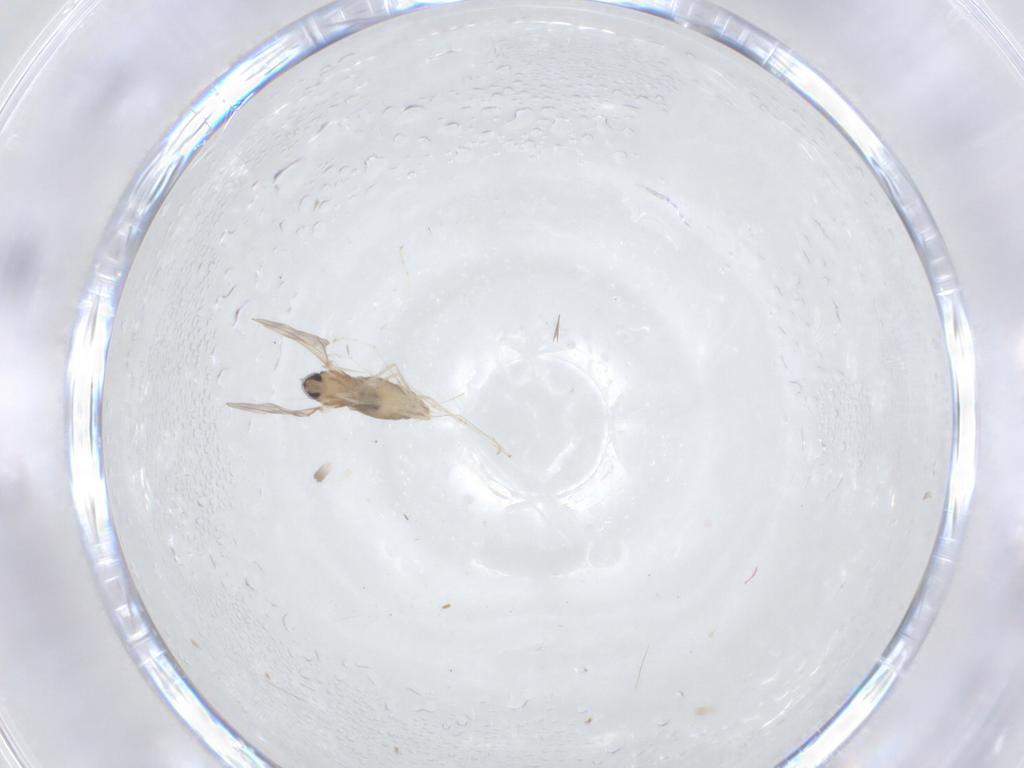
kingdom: Animalia
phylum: Arthropoda
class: Insecta
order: Diptera
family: Cecidomyiidae
